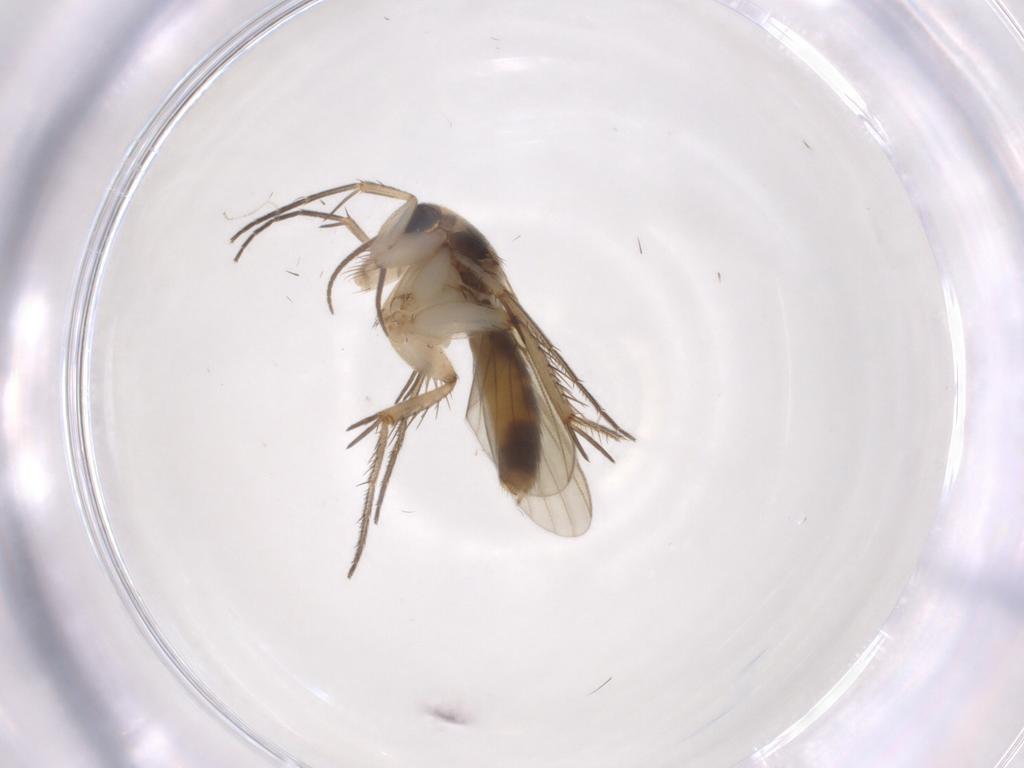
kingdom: Animalia
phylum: Arthropoda
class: Insecta
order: Diptera
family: Mycetophilidae
